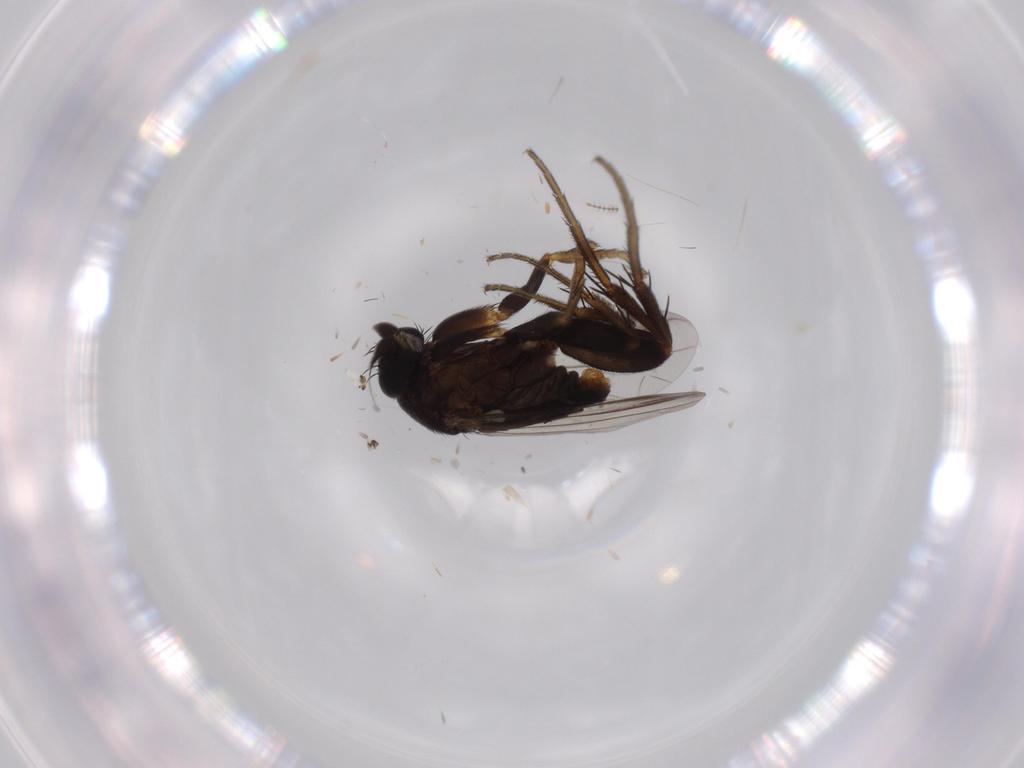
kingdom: Animalia
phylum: Arthropoda
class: Insecta
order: Diptera
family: Phoridae
